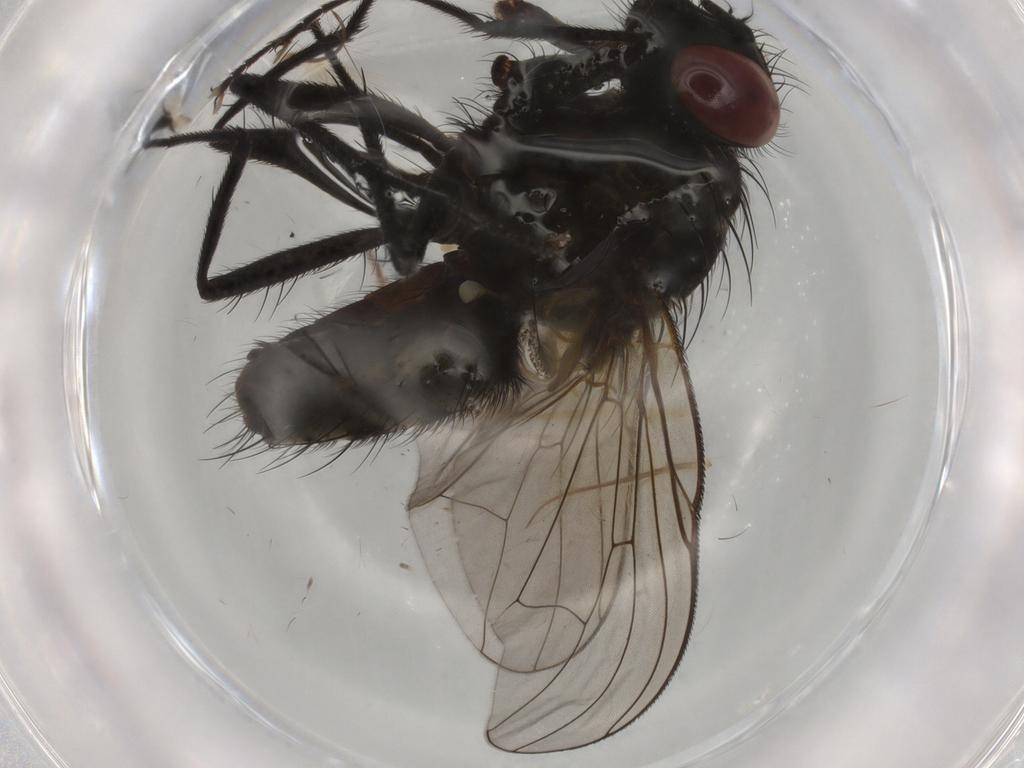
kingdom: Animalia
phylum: Arthropoda
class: Insecta
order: Diptera
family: Muscidae
